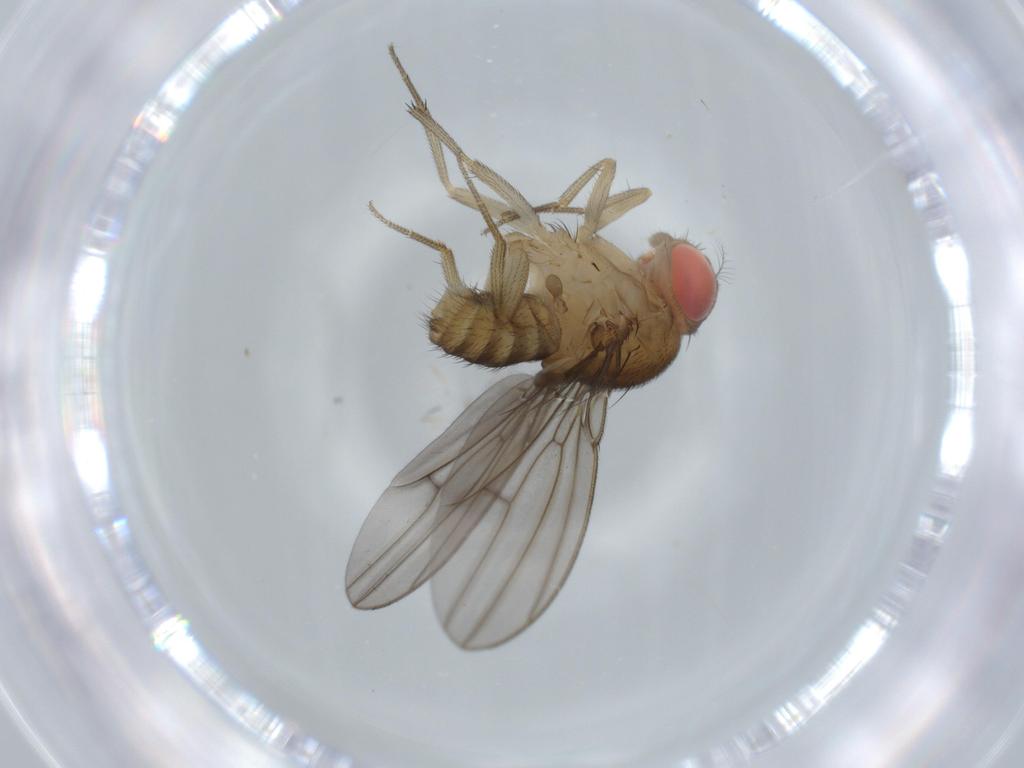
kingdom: Animalia
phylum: Arthropoda
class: Insecta
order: Diptera
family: Drosophilidae
